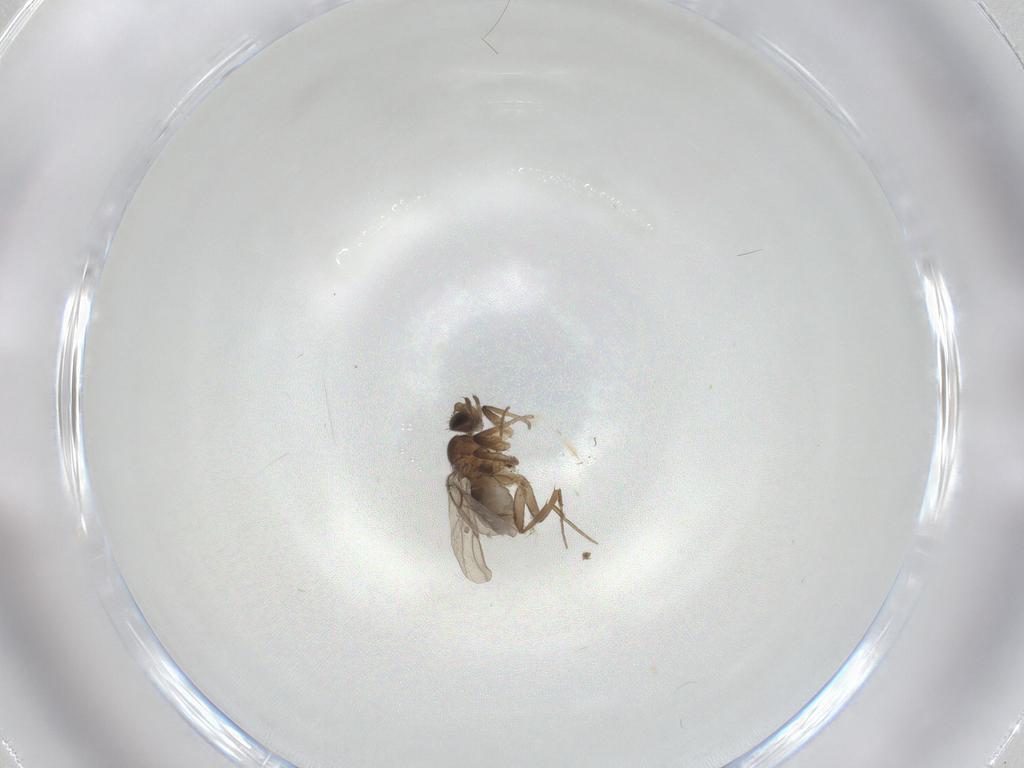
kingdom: Animalia
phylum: Arthropoda
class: Insecta
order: Diptera
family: Phoridae
